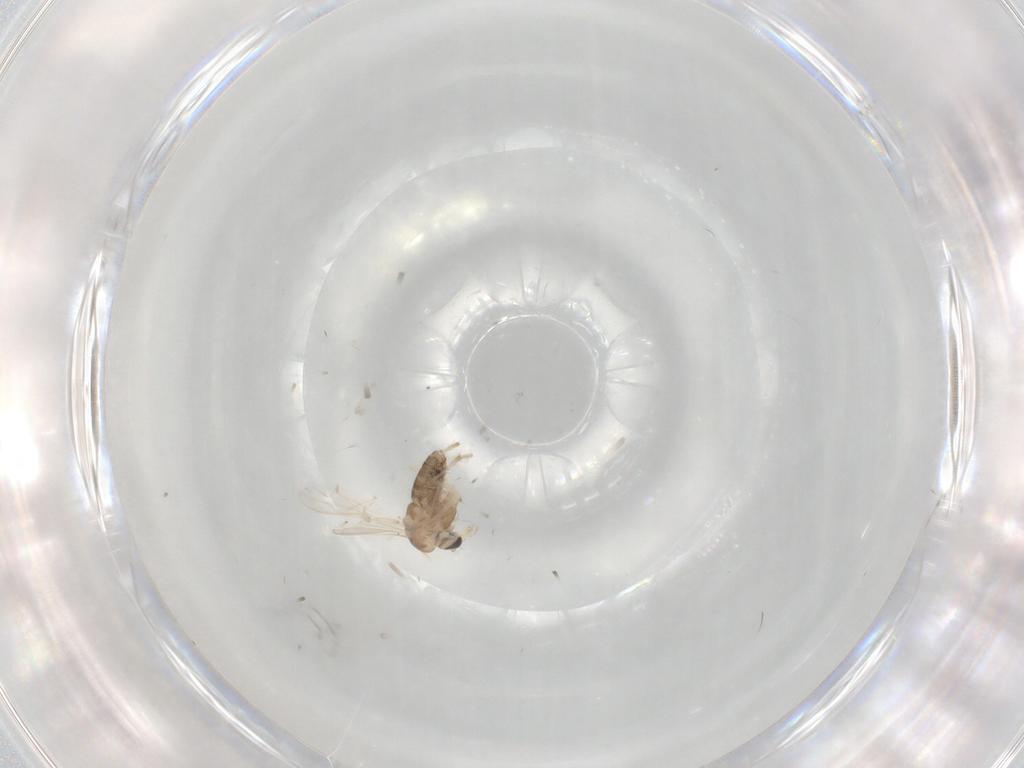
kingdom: Animalia
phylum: Arthropoda
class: Insecta
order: Diptera
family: Chironomidae
